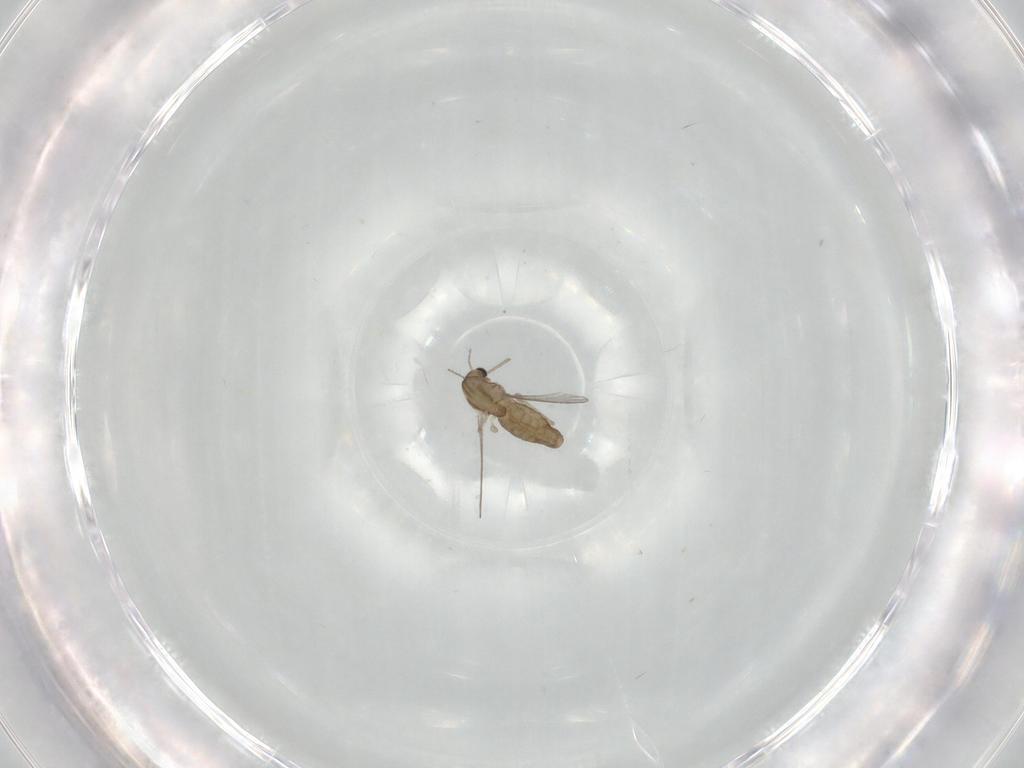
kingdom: Animalia
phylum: Arthropoda
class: Insecta
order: Diptera
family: Chironomidae
